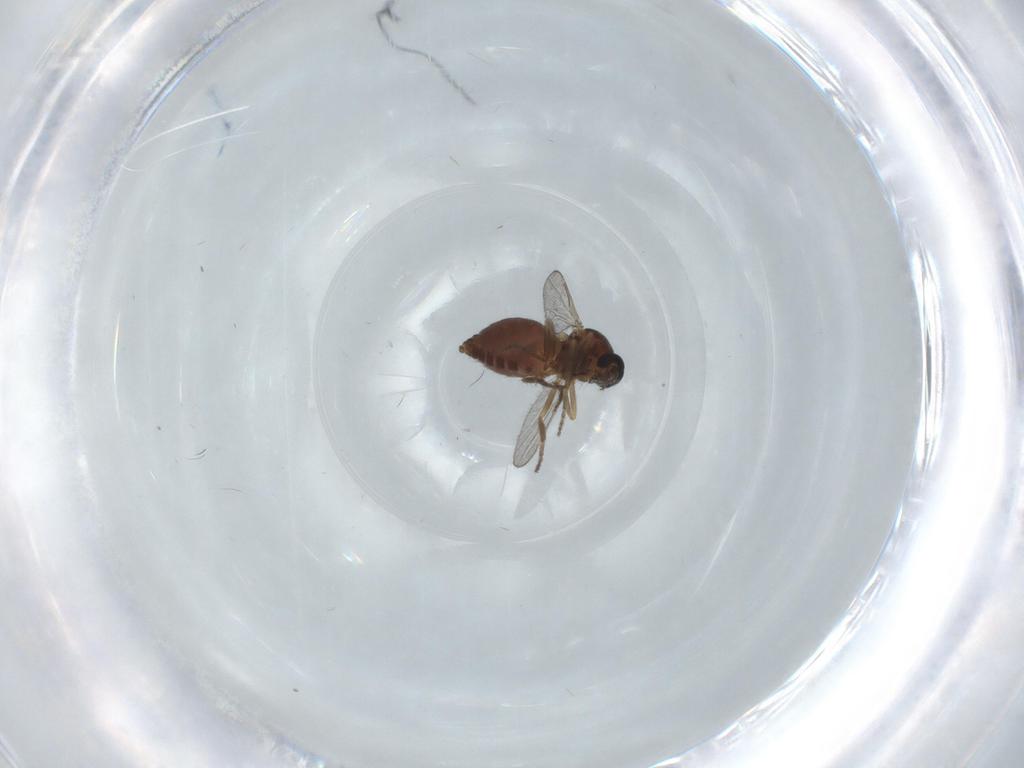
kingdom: Animalia
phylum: Arthropoda
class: Insecta
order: Diptera
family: Ceratopogonidae
